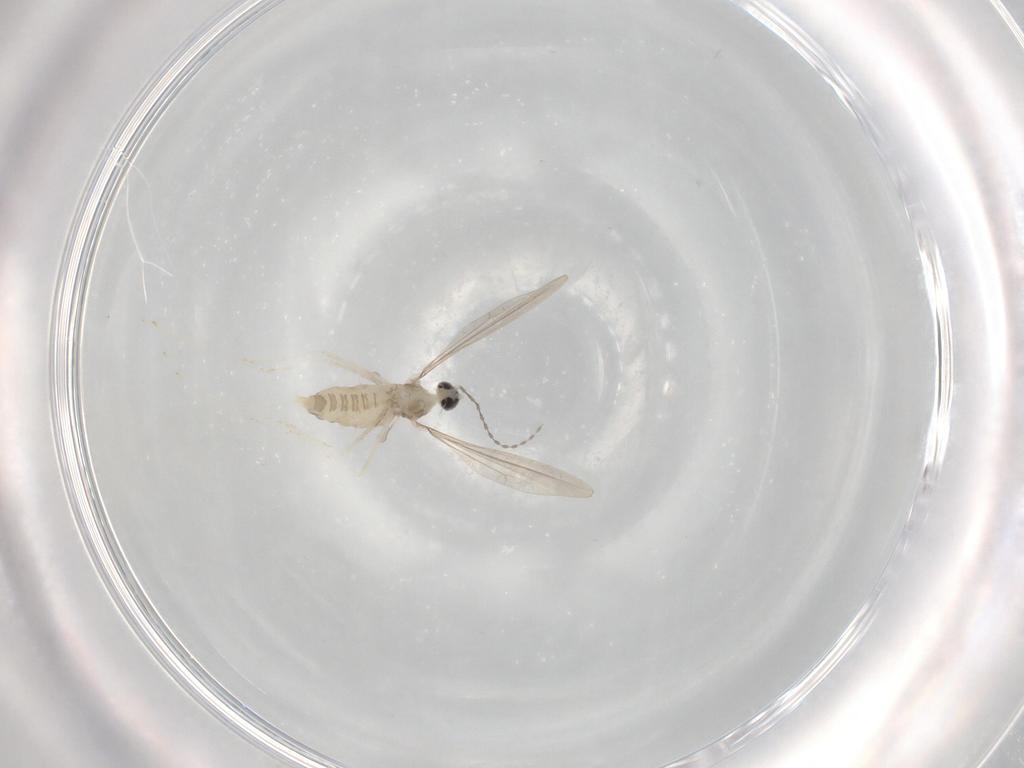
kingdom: Animalia
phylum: Arthropoda
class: Insecta
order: Diptera
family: Cecidomyiidae
